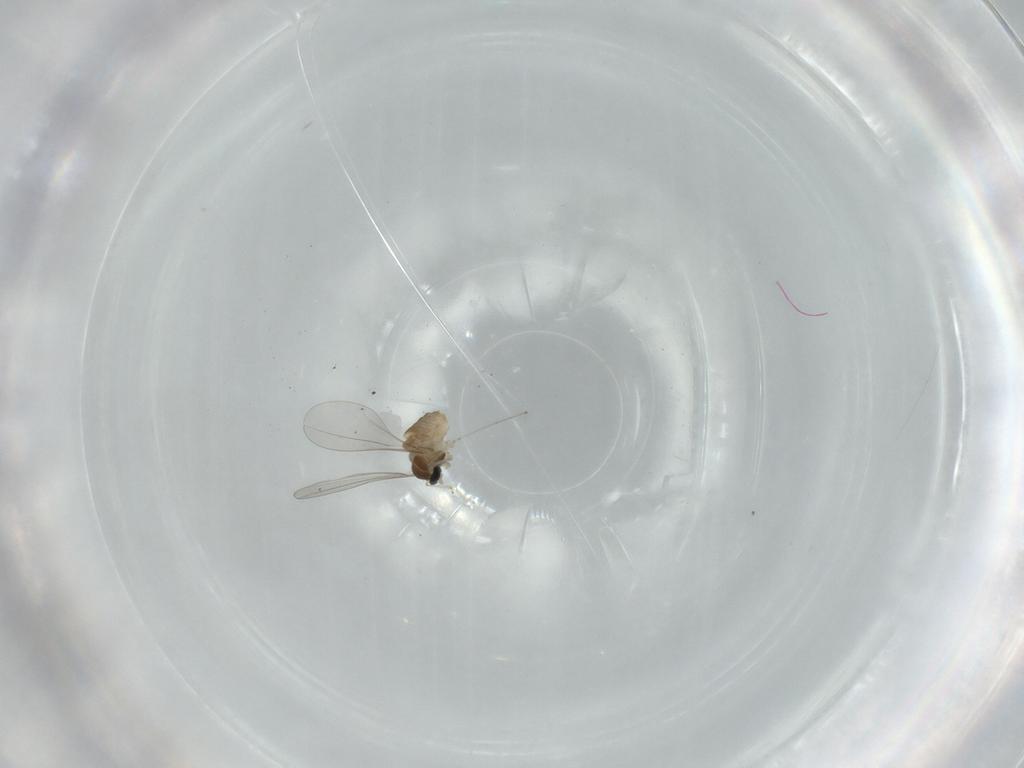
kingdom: Animalia
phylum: Arthropoda
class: Insecta
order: Diptera
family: Cecidomyiidae
